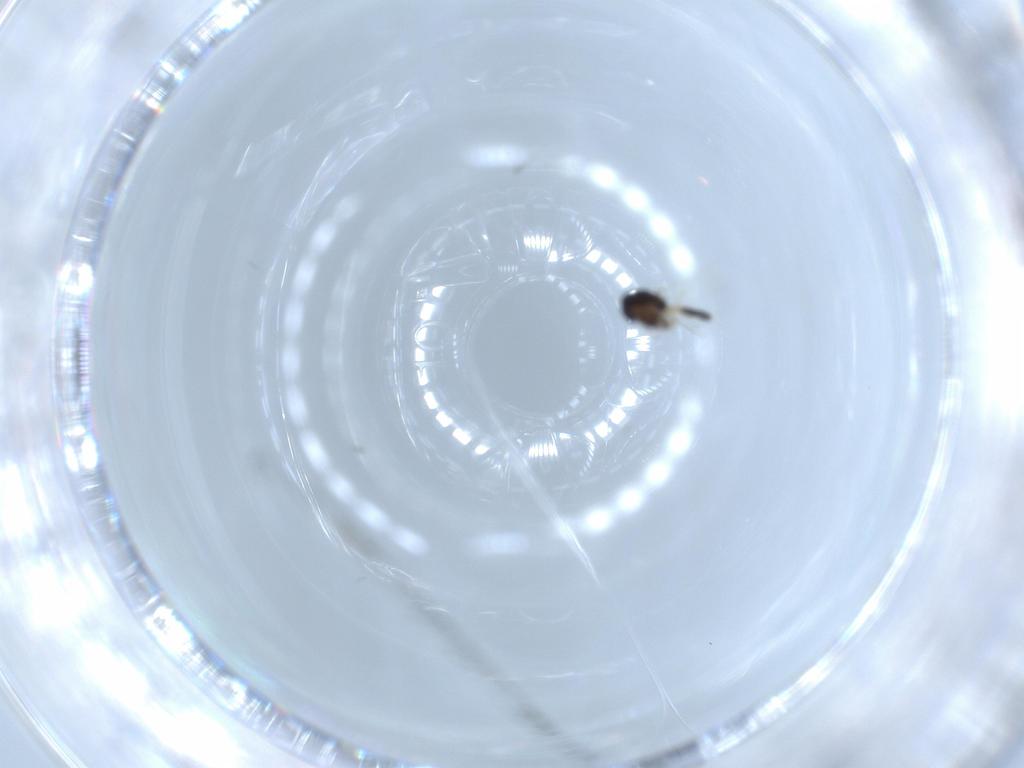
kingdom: Animalia
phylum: Arthropoda
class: Insecta
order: Diptera
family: Chironomidae
